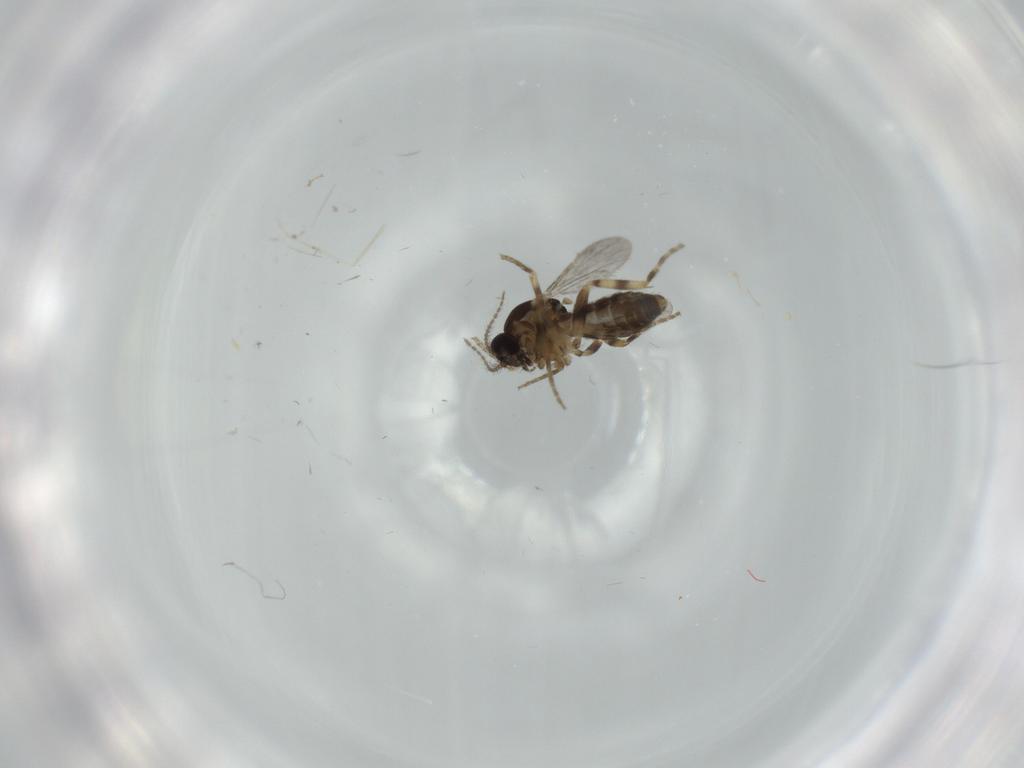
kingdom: Animalia
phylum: Arthropoda
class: Insecta
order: Diptera
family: Cecidomyiidae
